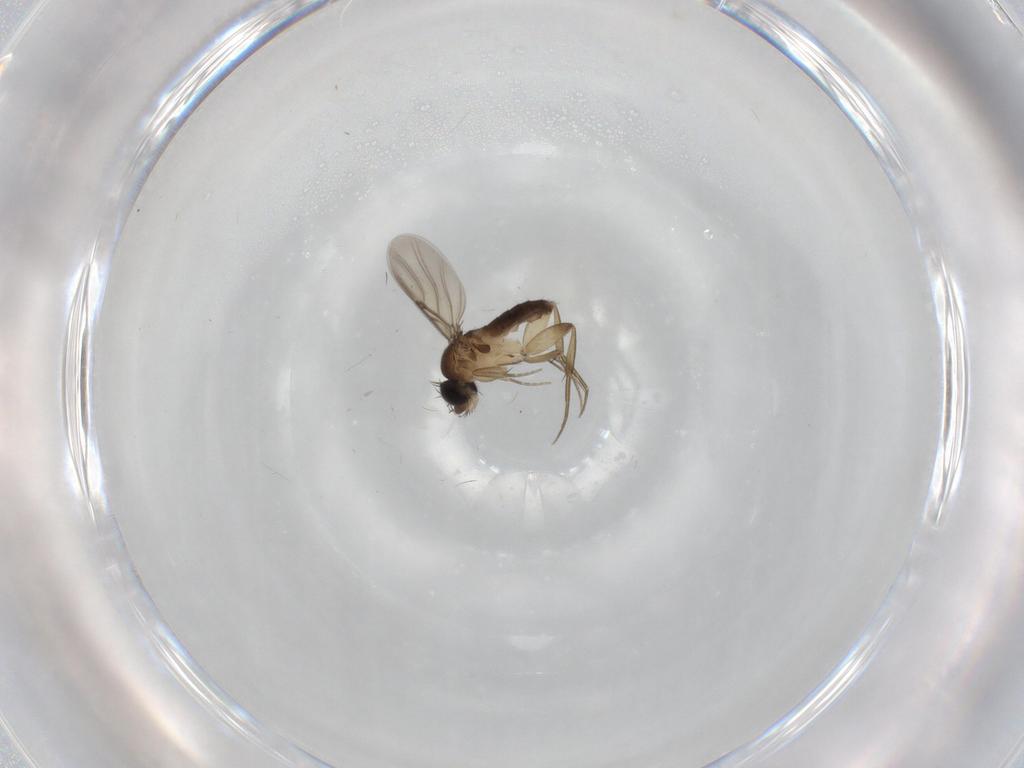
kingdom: Animalia
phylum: Arthropoda
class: Insecta
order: Diptera
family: Phoridae
